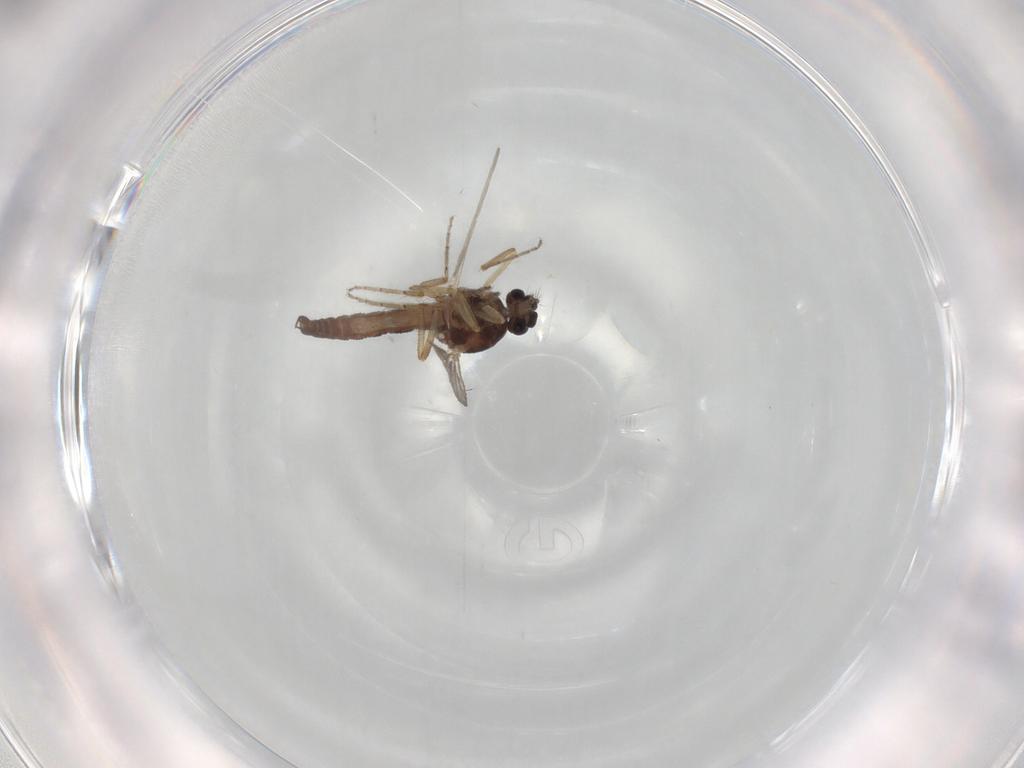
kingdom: Animalia
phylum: Arthropoda
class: Insecta
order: Diptera
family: Ceratopogonidae
